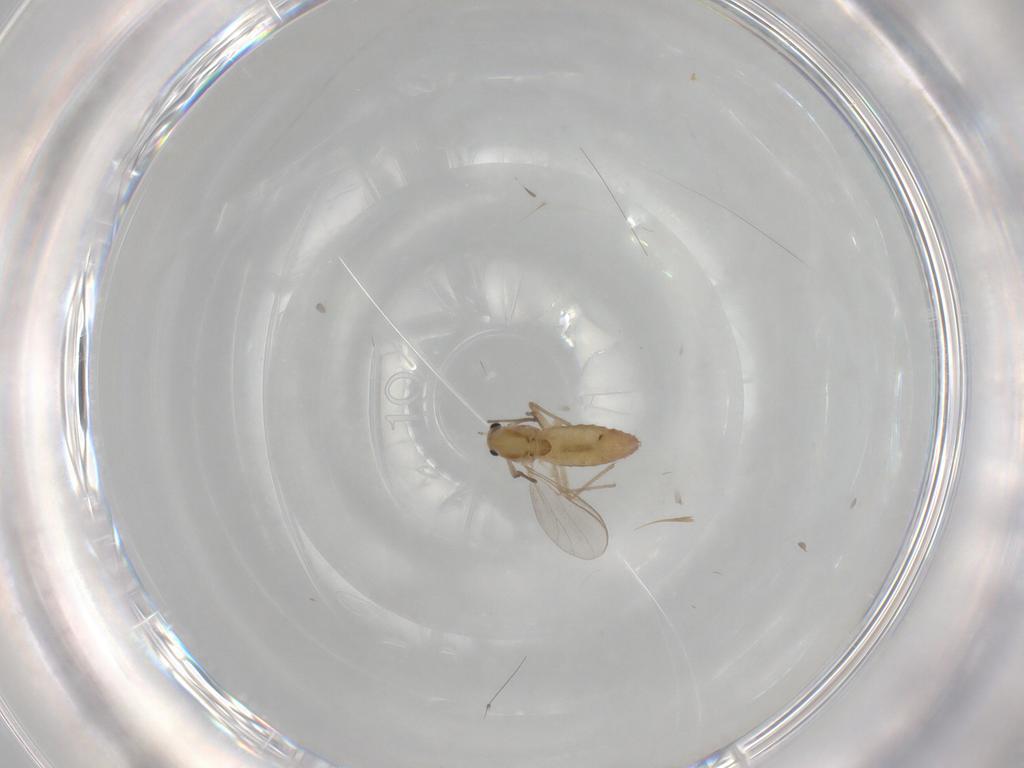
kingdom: Animalia
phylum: Arthropoda
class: Insecta
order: Diptera
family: Chironomidae
